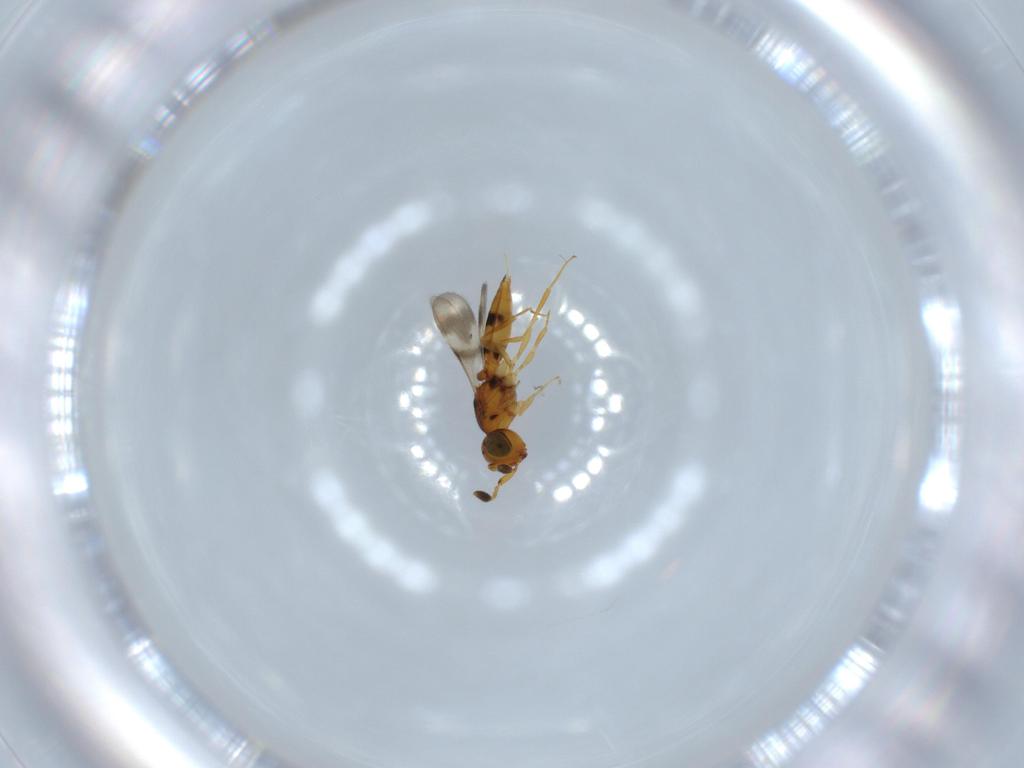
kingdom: Animalia
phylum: Arthropoda
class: Insecta
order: Hymenoptera
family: Scelionidae
